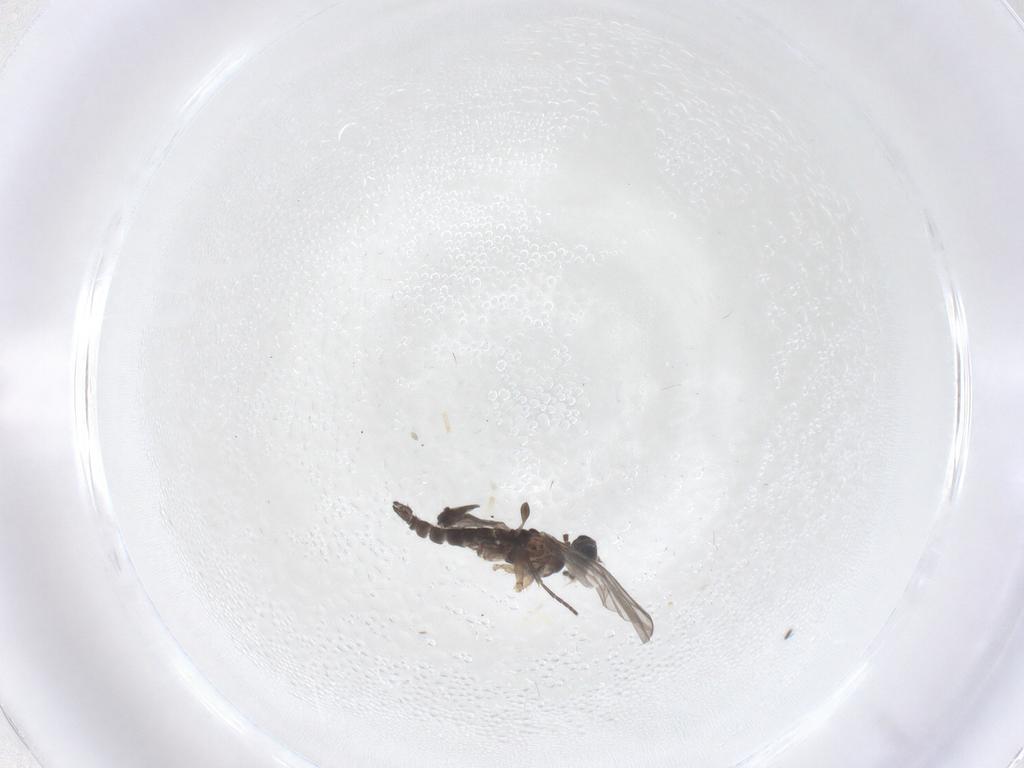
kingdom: Animalia
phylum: Arthropoda
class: Insecta
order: Diptera
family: Sciaridae
